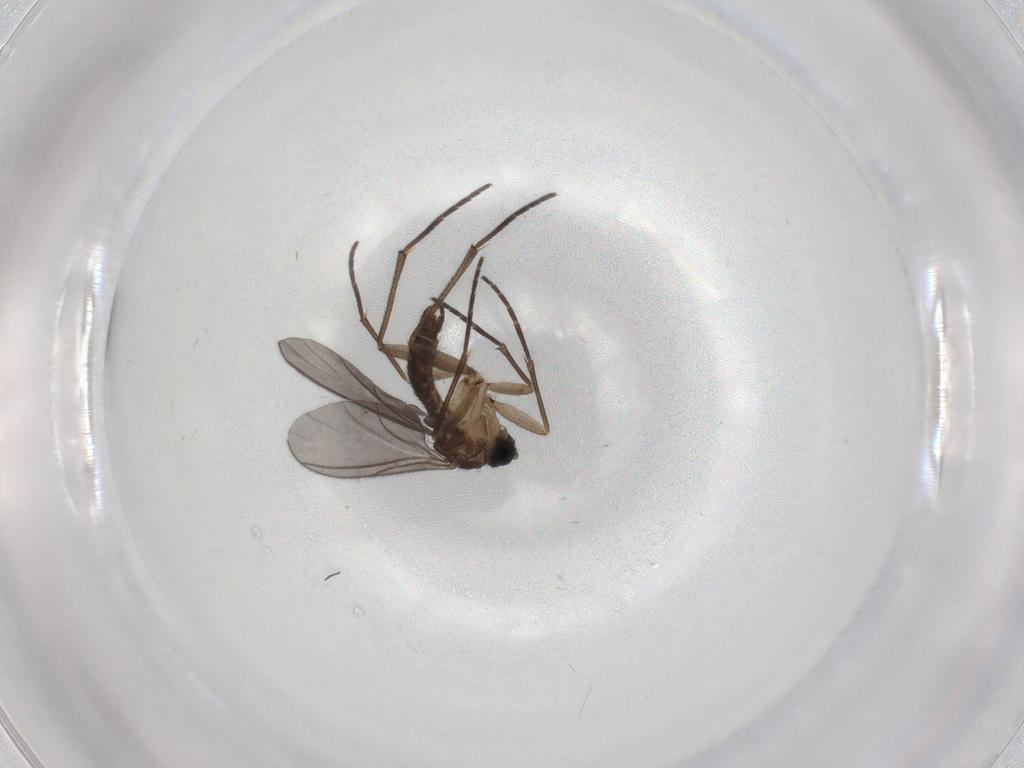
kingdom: Animalia
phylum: Arthropoda
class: Insecta
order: Diptera
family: Sciaridae
